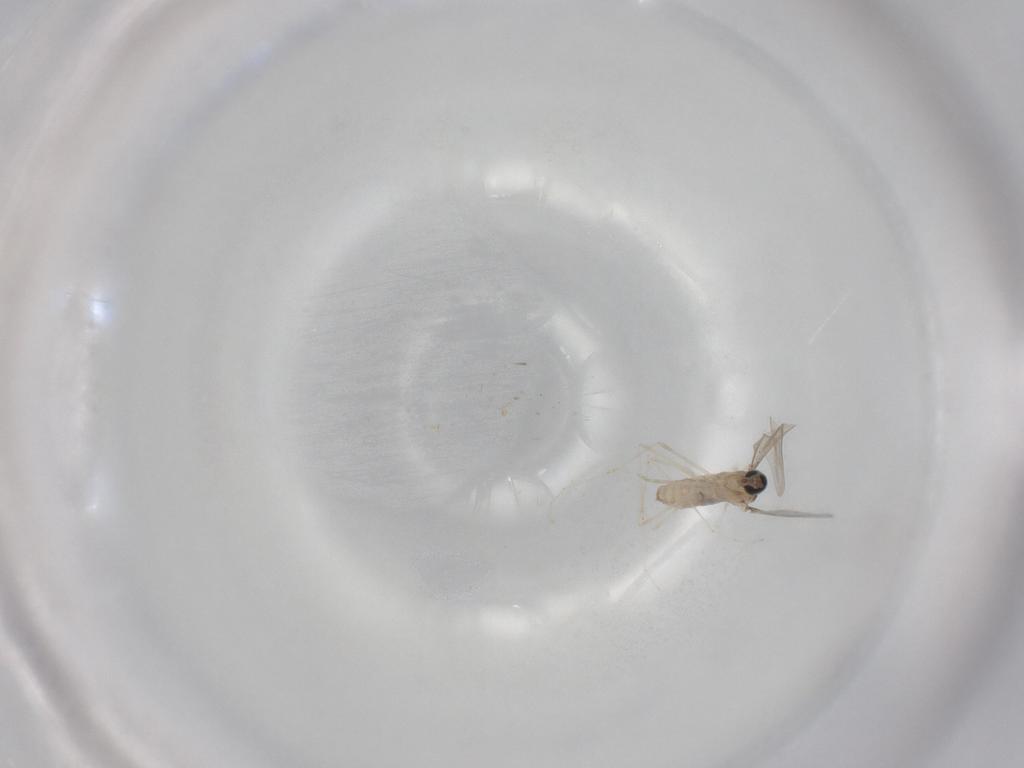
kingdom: Animalia
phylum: Arthropoda
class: Insecta
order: Diptera
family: Cecidomyiidae
